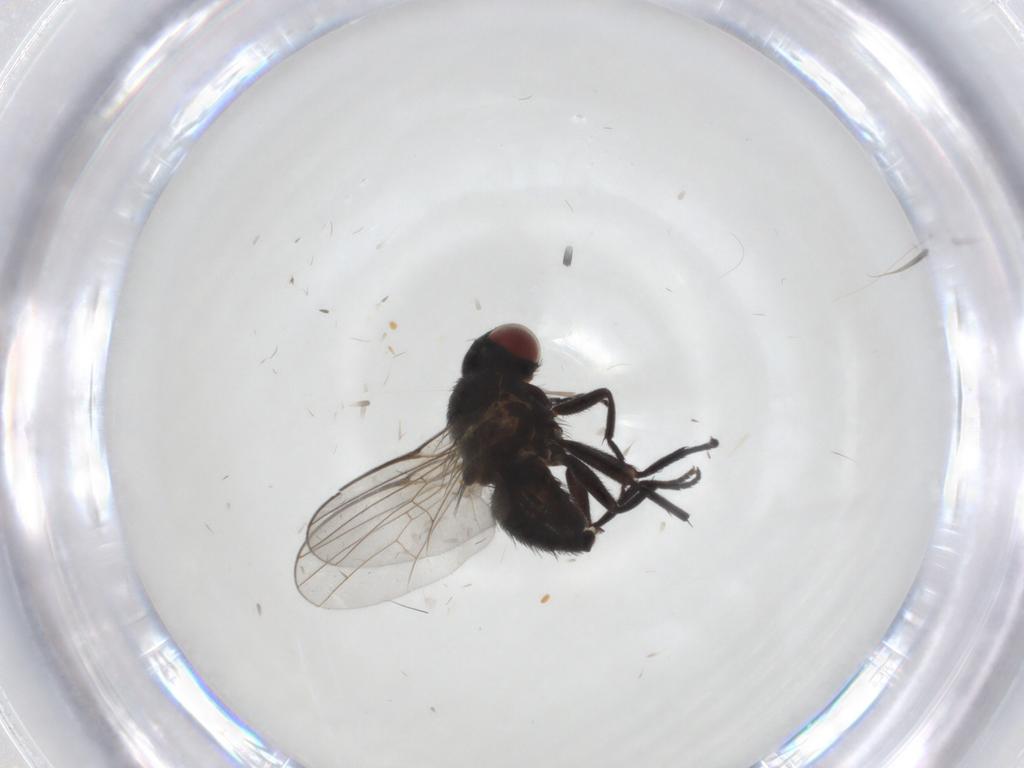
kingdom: Animalia
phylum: Arthropoda
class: Insecta
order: Diptera
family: Agromyzidae
